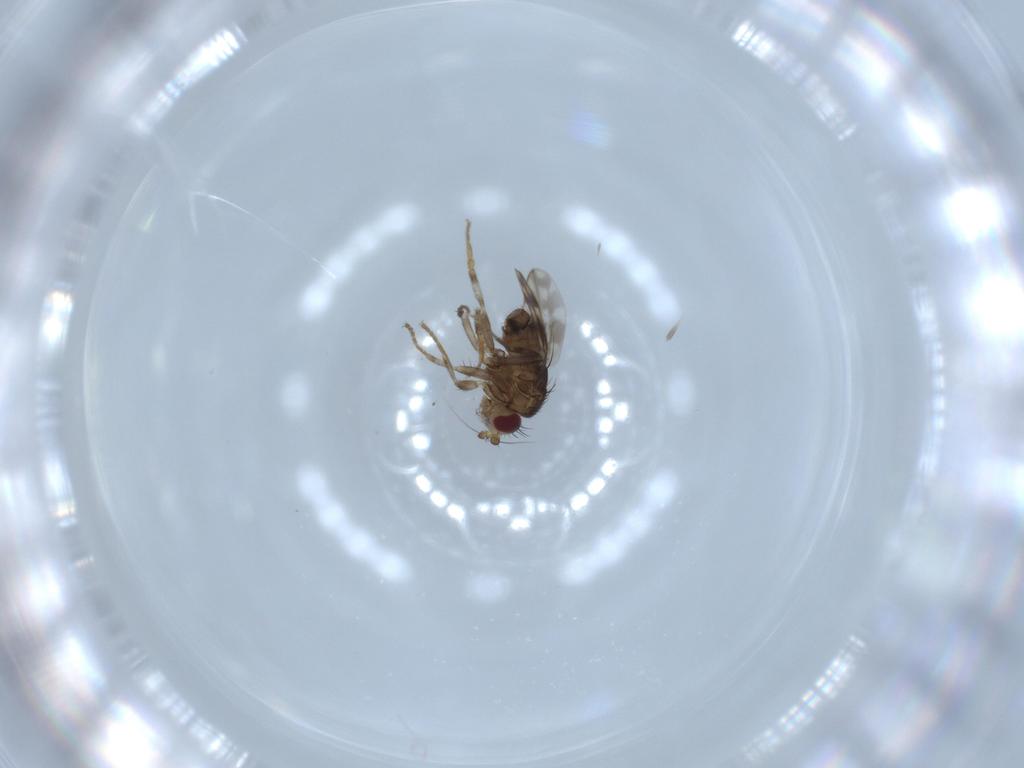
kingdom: Animalia
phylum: Arthropoda
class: Insecta
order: Diptera
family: Sphaeroceridae
